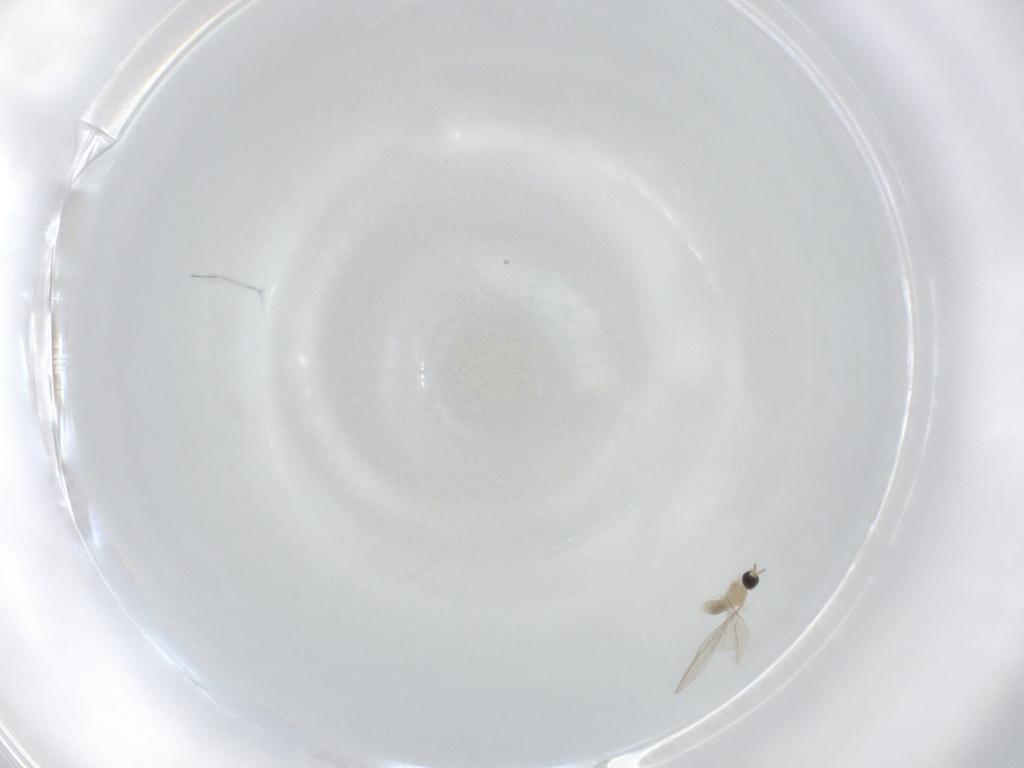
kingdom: Animalia
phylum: Arthropoda
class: Insecta
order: Diptera
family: Cecidomyiidae
